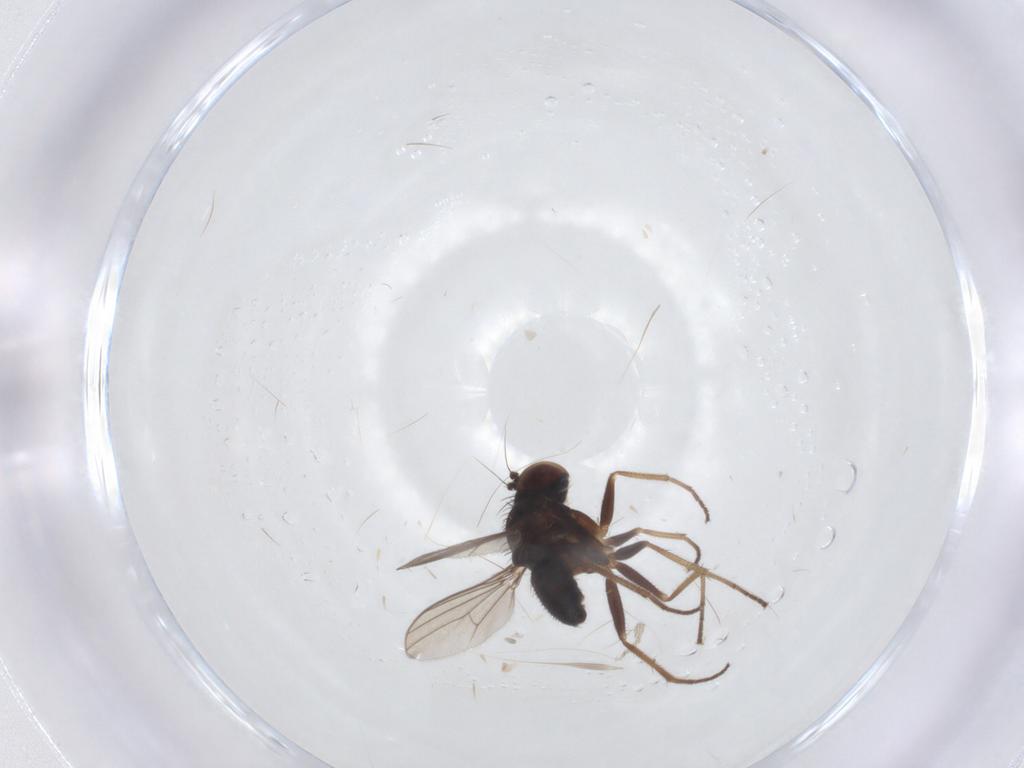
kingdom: Animalia
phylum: Arthropoda
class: Insecta
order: Diptera
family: Dolichopodidae
